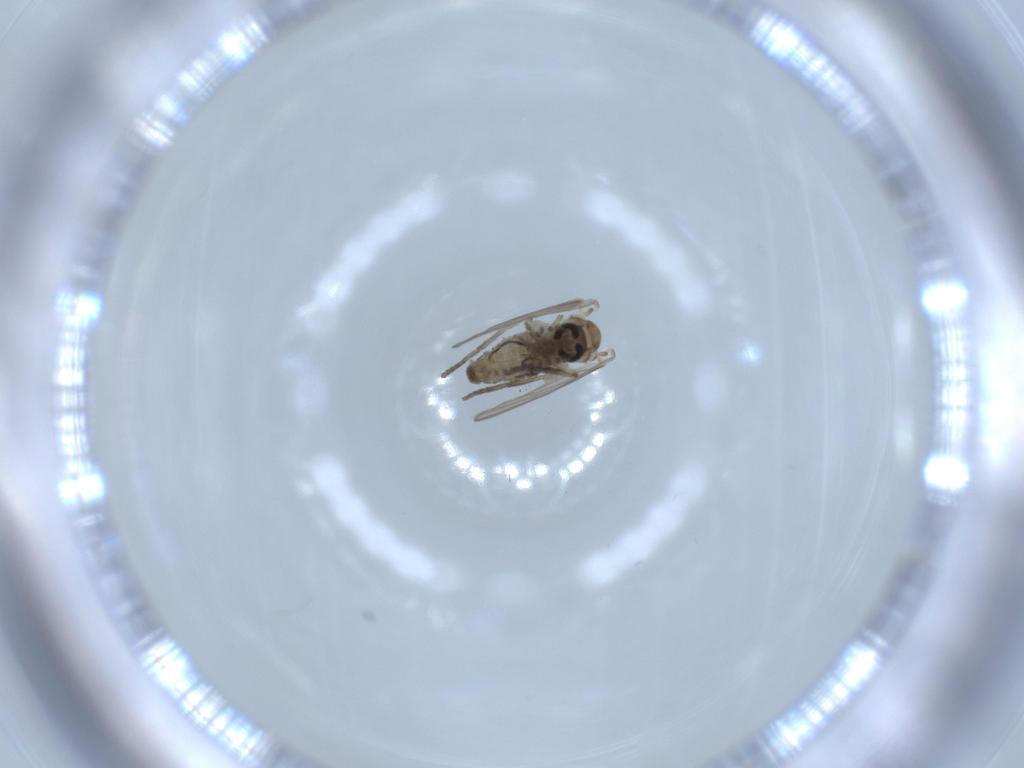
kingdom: Animalia
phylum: Arthropoda
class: Insecta
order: Diptera
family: Psychodidae
